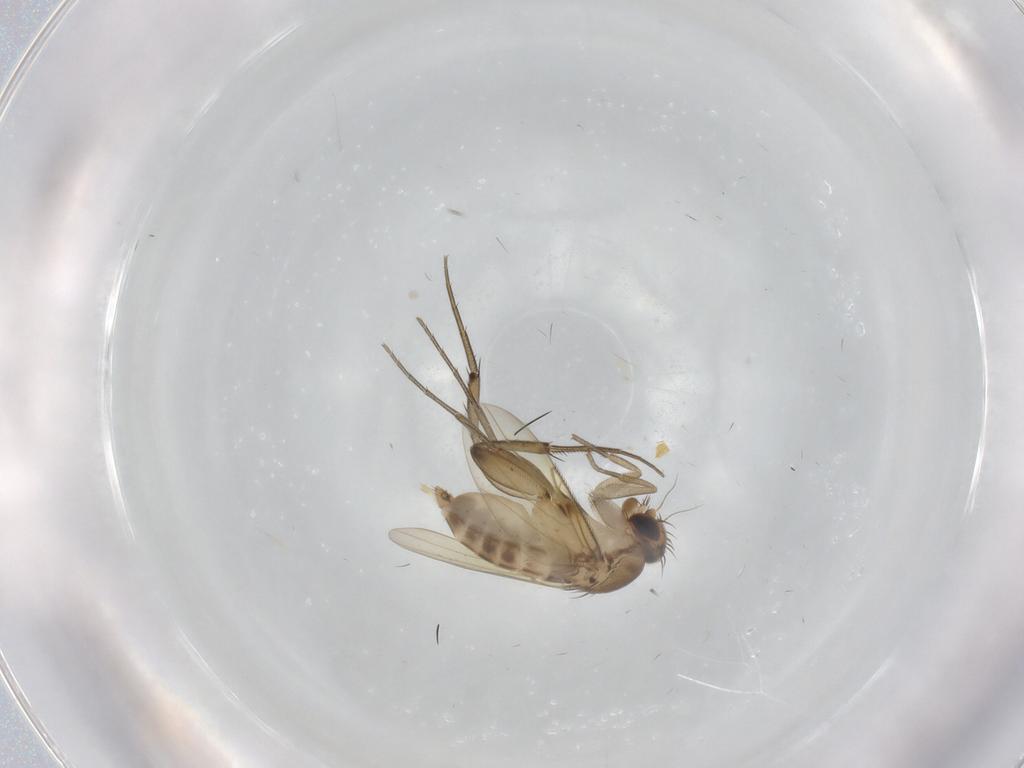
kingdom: Animalia
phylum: Arthropoda
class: Insecta
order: Diptera
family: Phoridae
